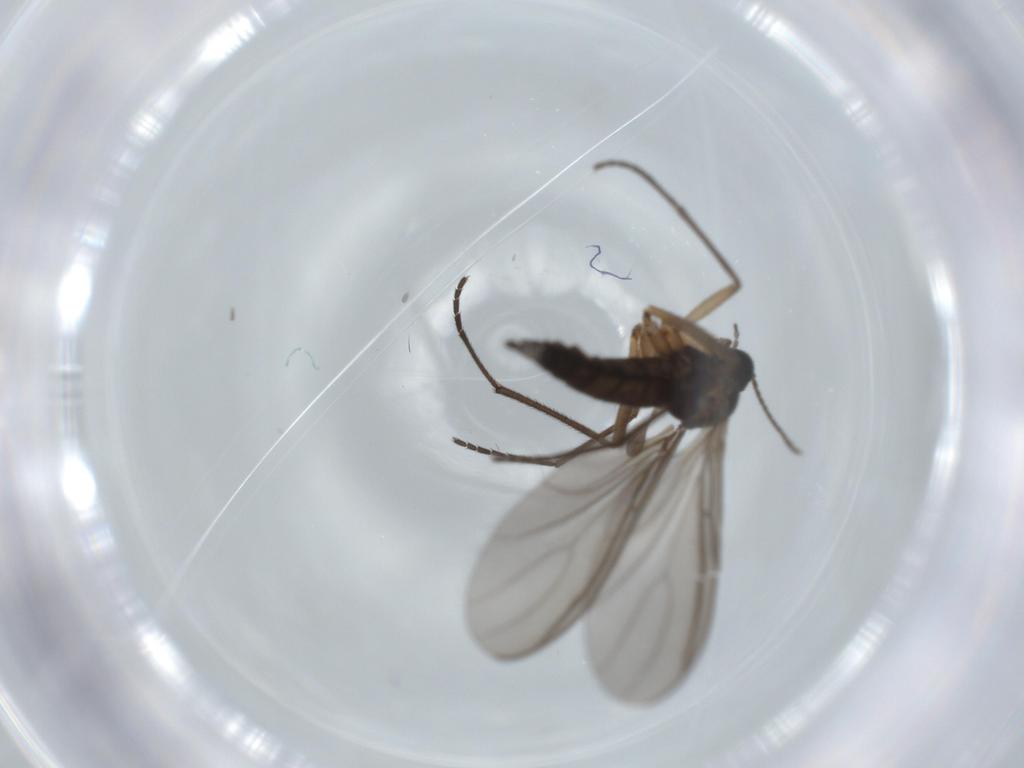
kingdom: Animalia
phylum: Arthropoda
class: Insecta
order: Diptera
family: Sciaridae
